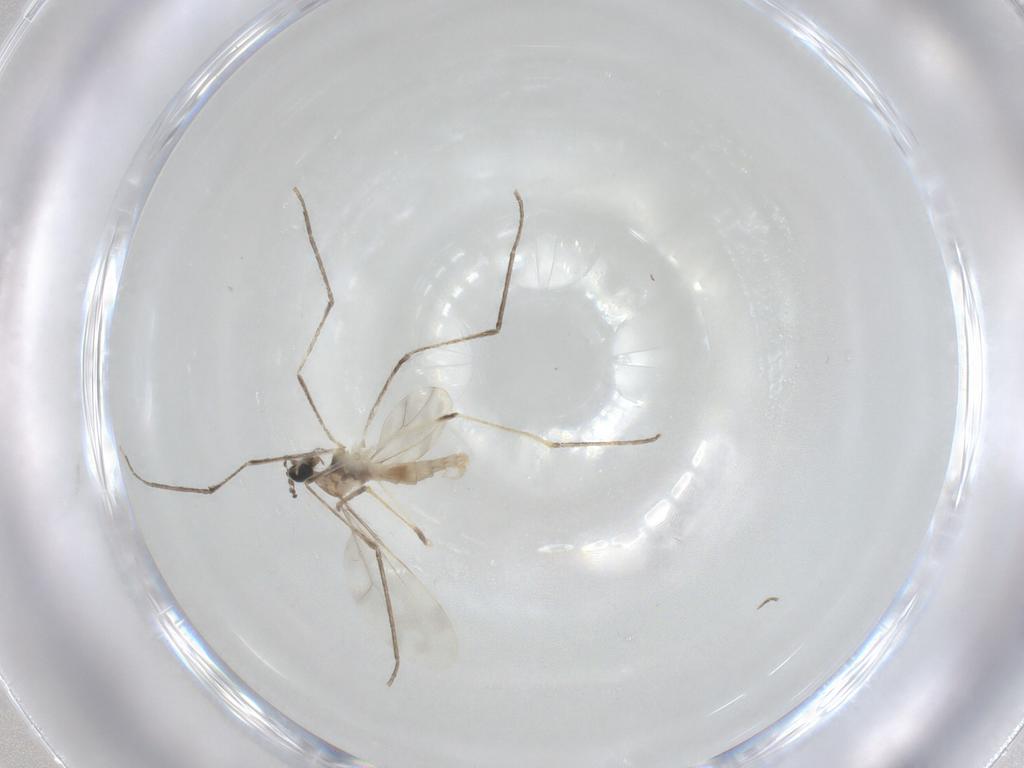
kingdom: Animalia
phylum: Arthropoda
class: Insecta
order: Diptera
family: Cecidomyiidae
